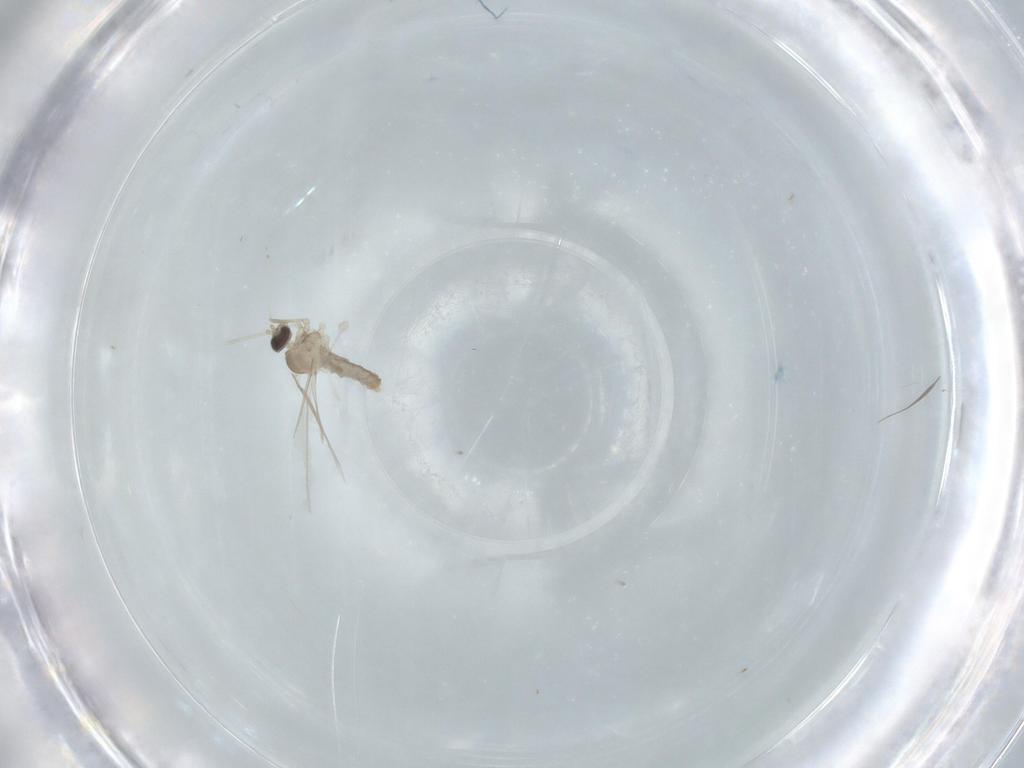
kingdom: Animalia
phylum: Arthropoda
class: Insecta
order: Diptera
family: Cecidomyiidae
